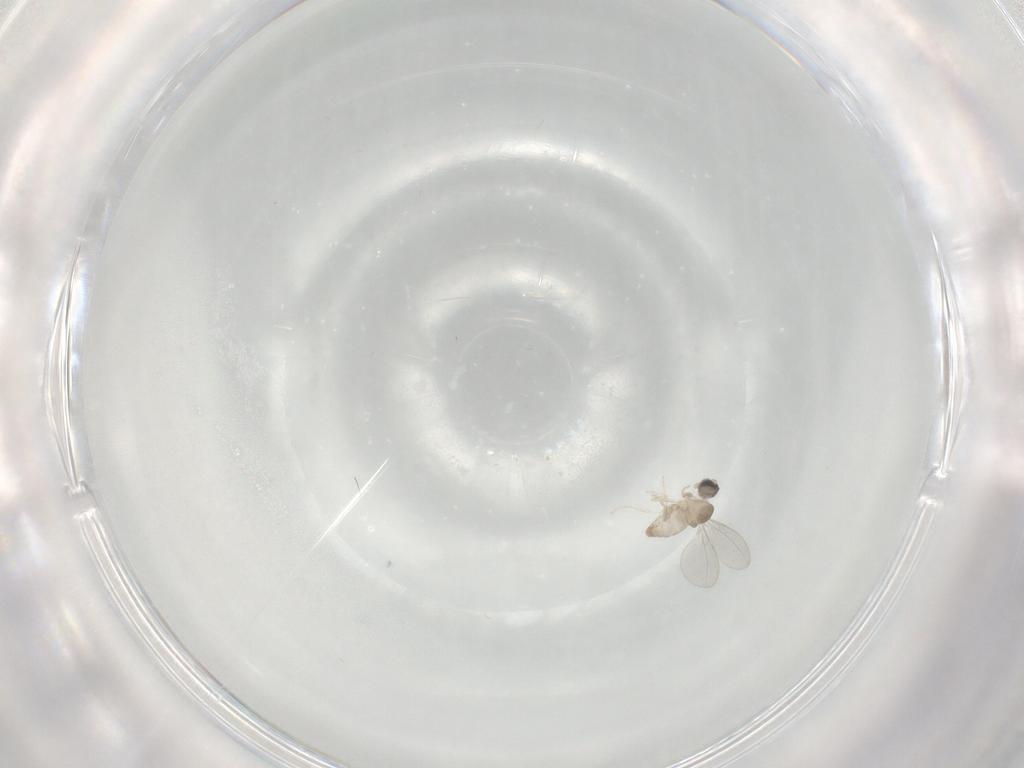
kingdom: Animalia
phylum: Arthropoda
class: Insecta
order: Diptera
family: Cecidomyiidae
